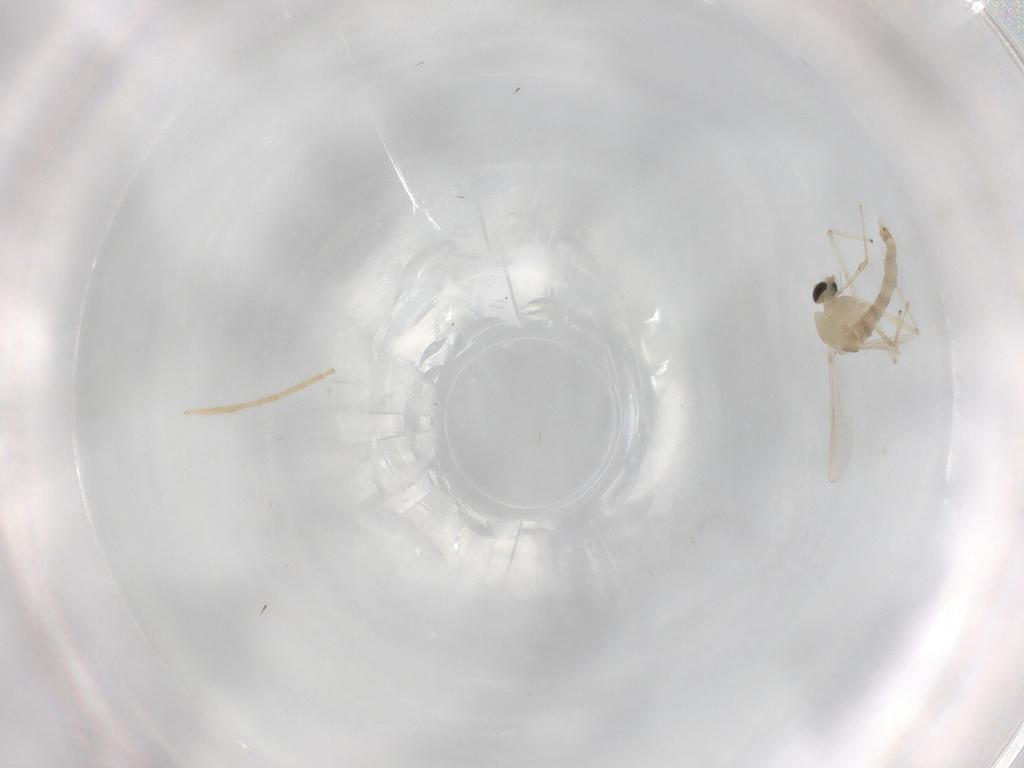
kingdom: Animalia
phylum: Arthropoda
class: Insecta
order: Diptera
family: Chironomidae
